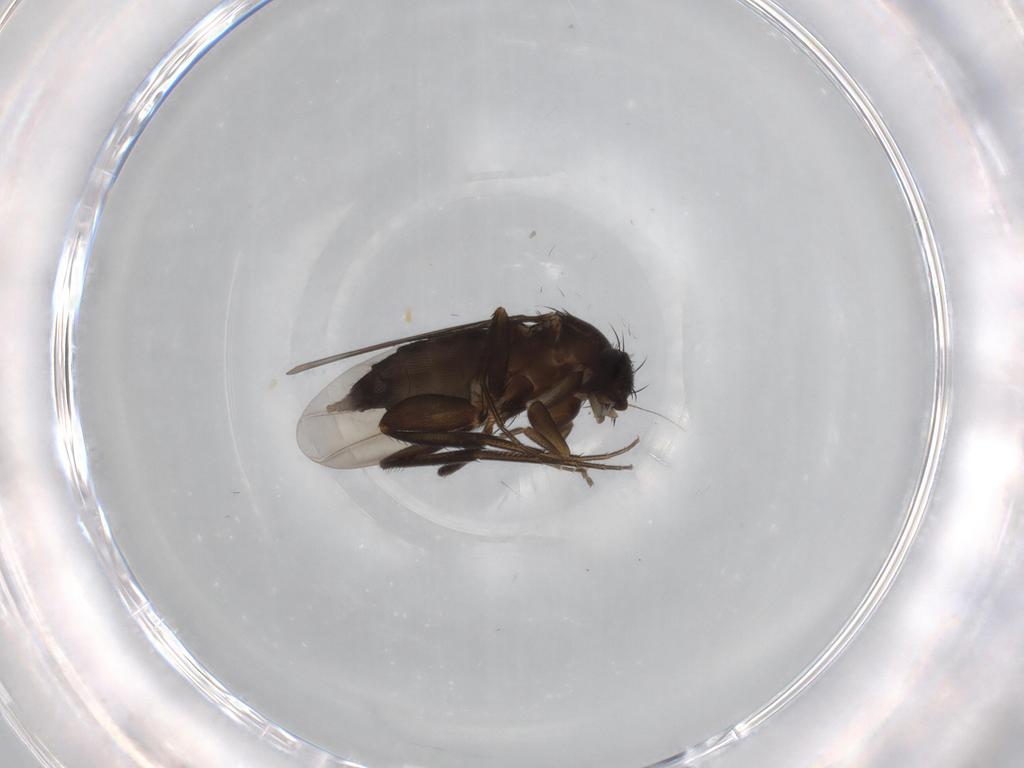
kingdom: Animalia
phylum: Arthropoda
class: Insecta
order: Diptera
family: Phoridae
